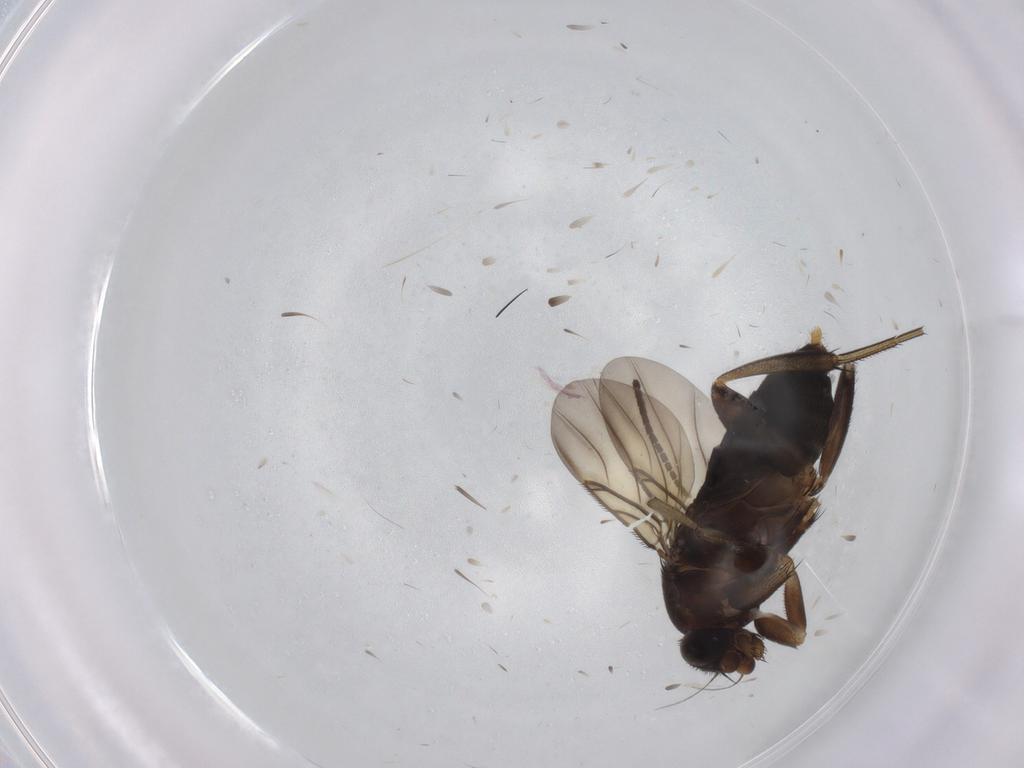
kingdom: Animalia
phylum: Arthropoda
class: Insecta
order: Diptera
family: Phoridae
